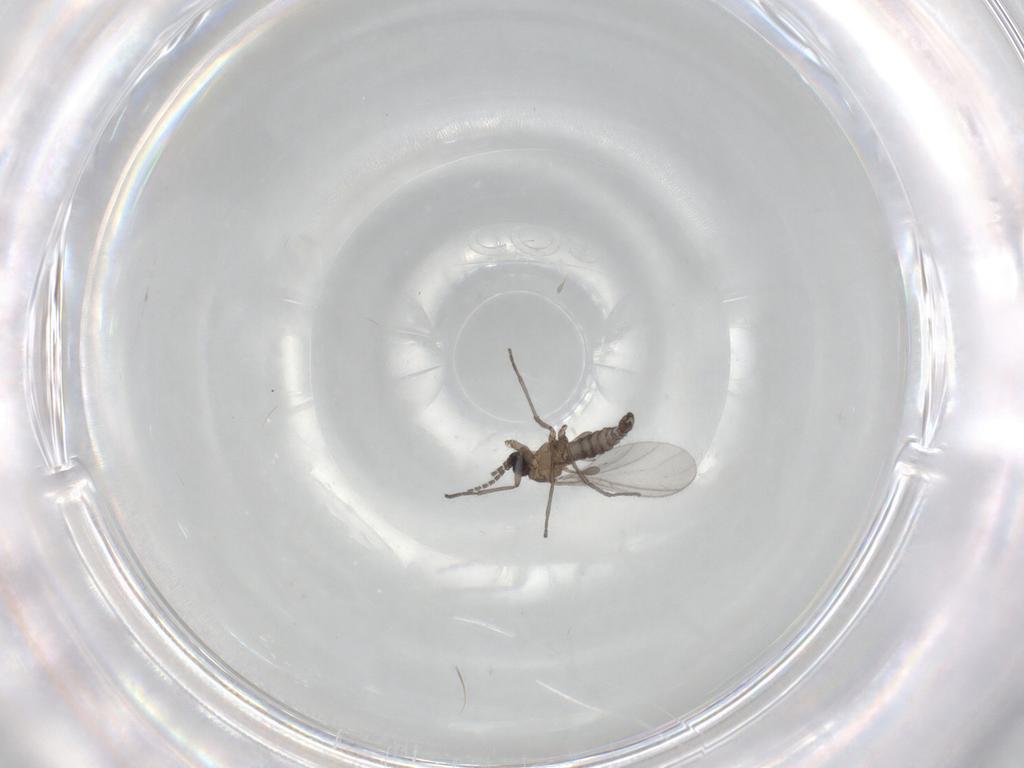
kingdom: Animalia
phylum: Arthropoda
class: Insecta
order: Diptera
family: Sciaridae
